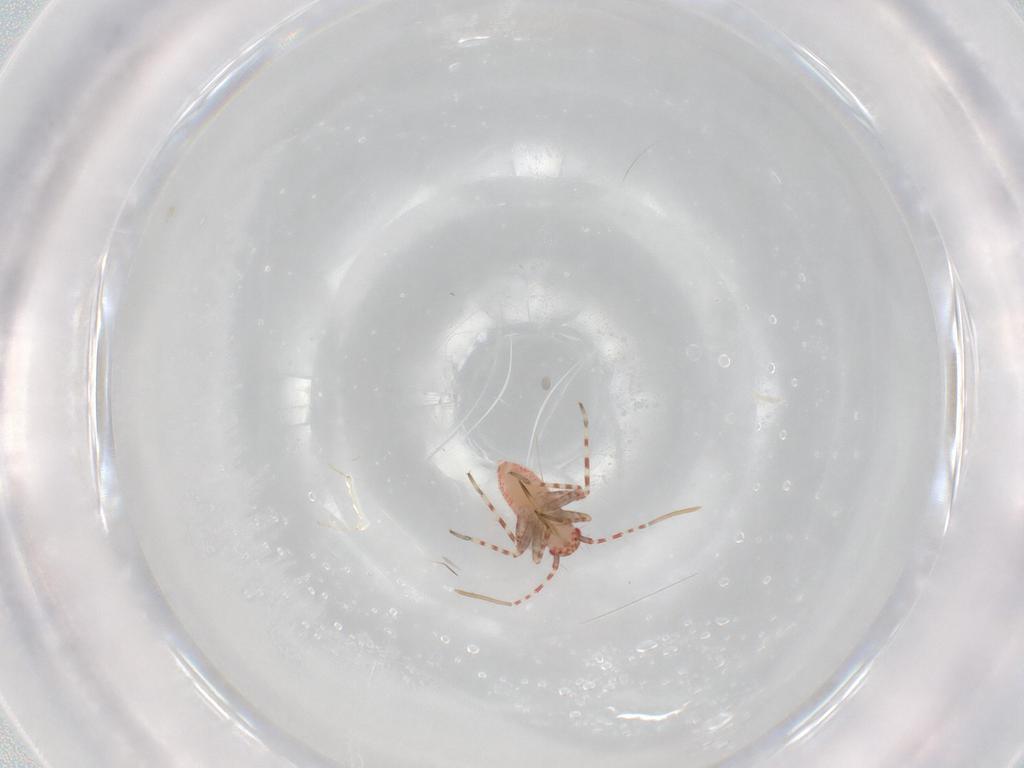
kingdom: Animalia
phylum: Arthropoda
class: Insecta
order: Hemiptera
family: Miridae
